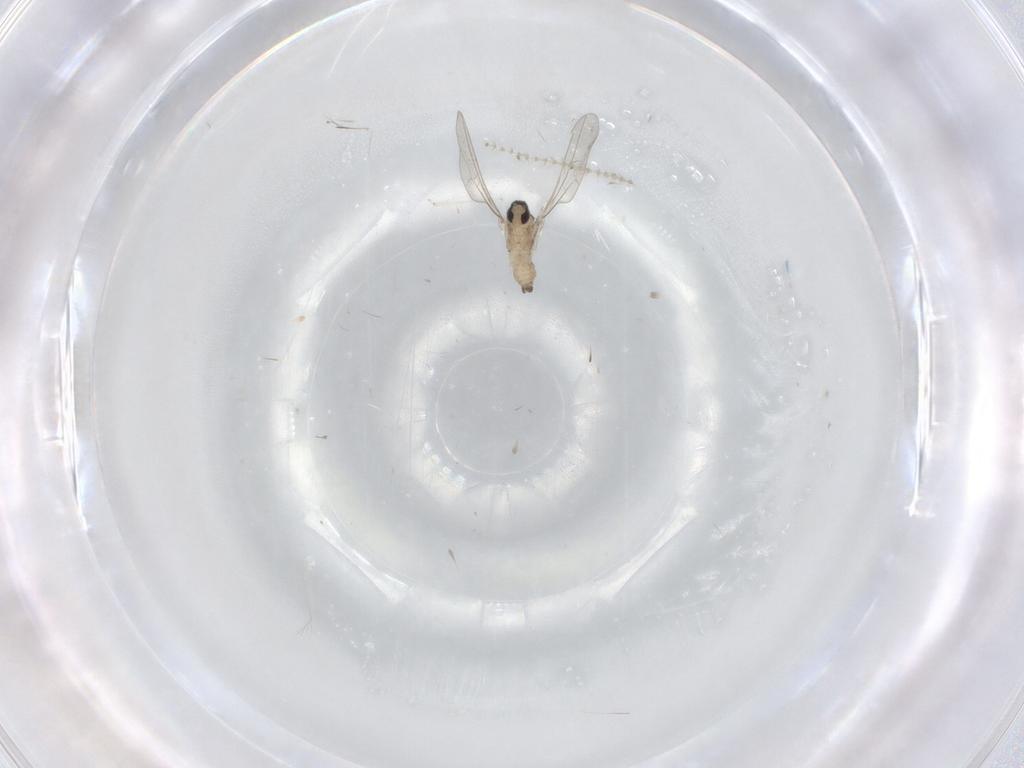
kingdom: Animalia
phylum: Arthropoda
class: Insecta
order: Diptera
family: Cecidomyiidae
